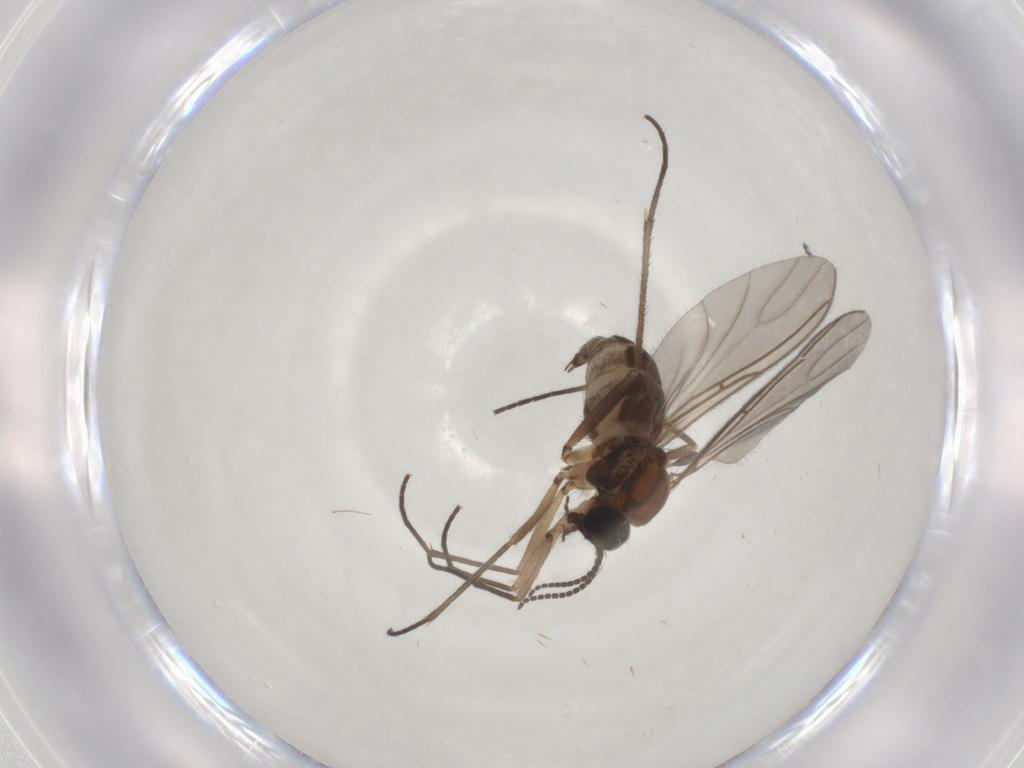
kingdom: Animalia
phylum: Arthropoda
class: Insecta
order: Diptera
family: Sciaridae
